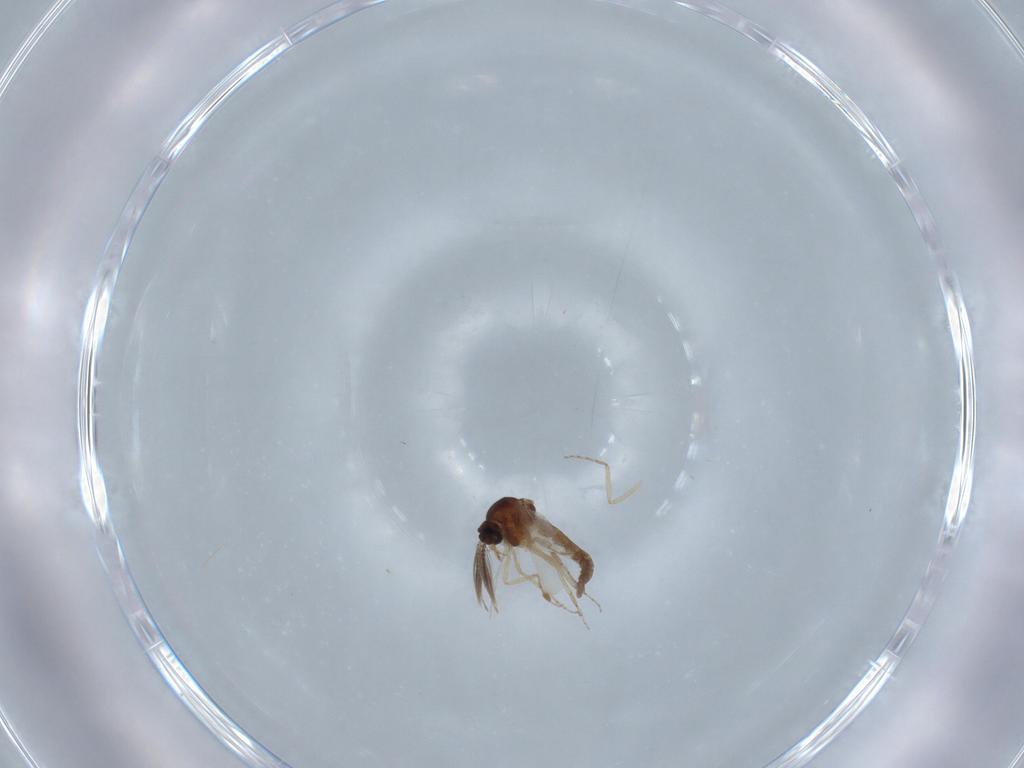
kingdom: Animalia
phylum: Arthropoda
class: Insecta
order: Diptera
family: Ceratopogonidae
